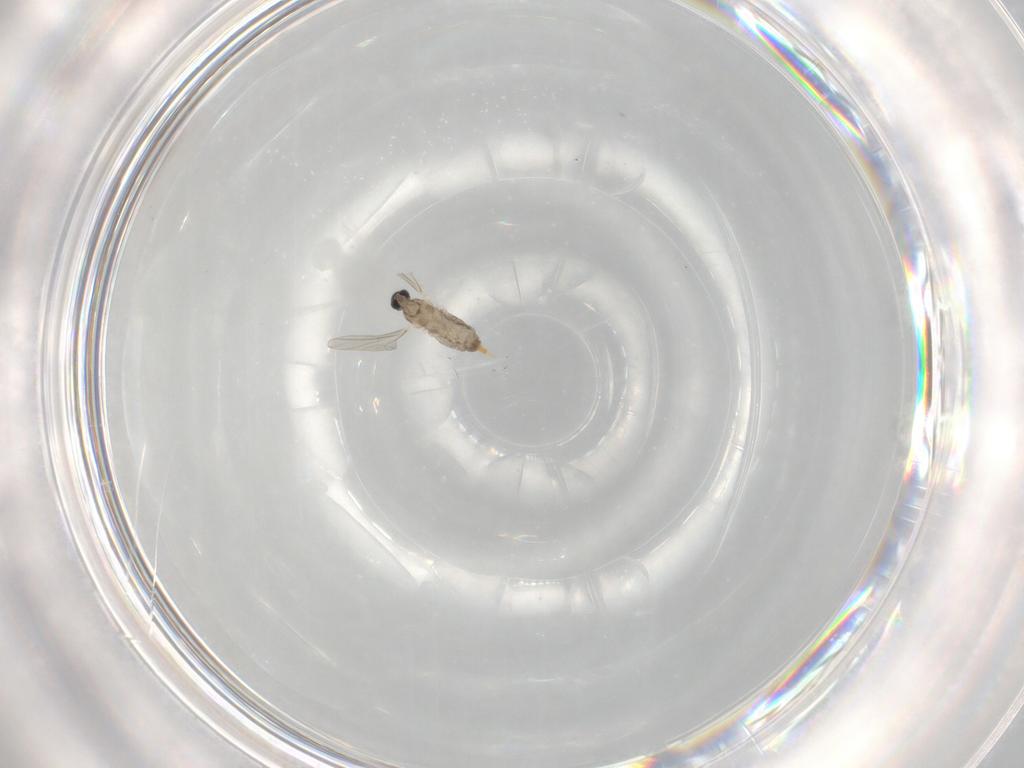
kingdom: Animalia
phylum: Arthropoda
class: Insecta
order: Diptera
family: Cecidomyiidae
